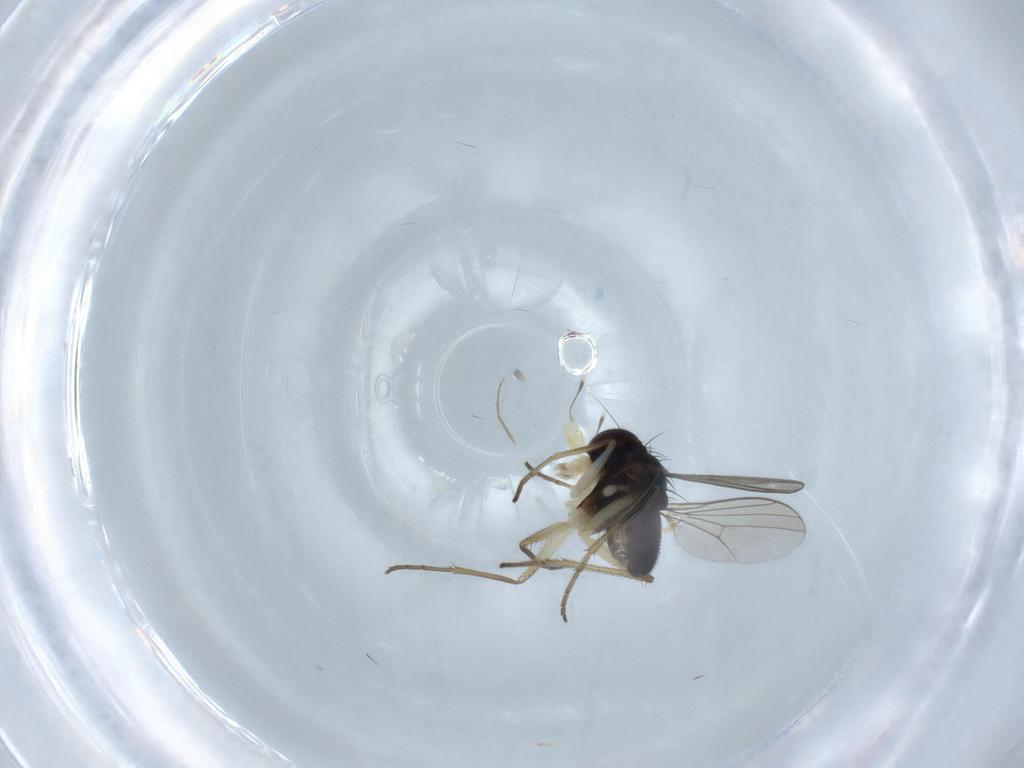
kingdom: Animalia
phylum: Arthropoda
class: Insecta
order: Diptera
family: Dolichopodidae
